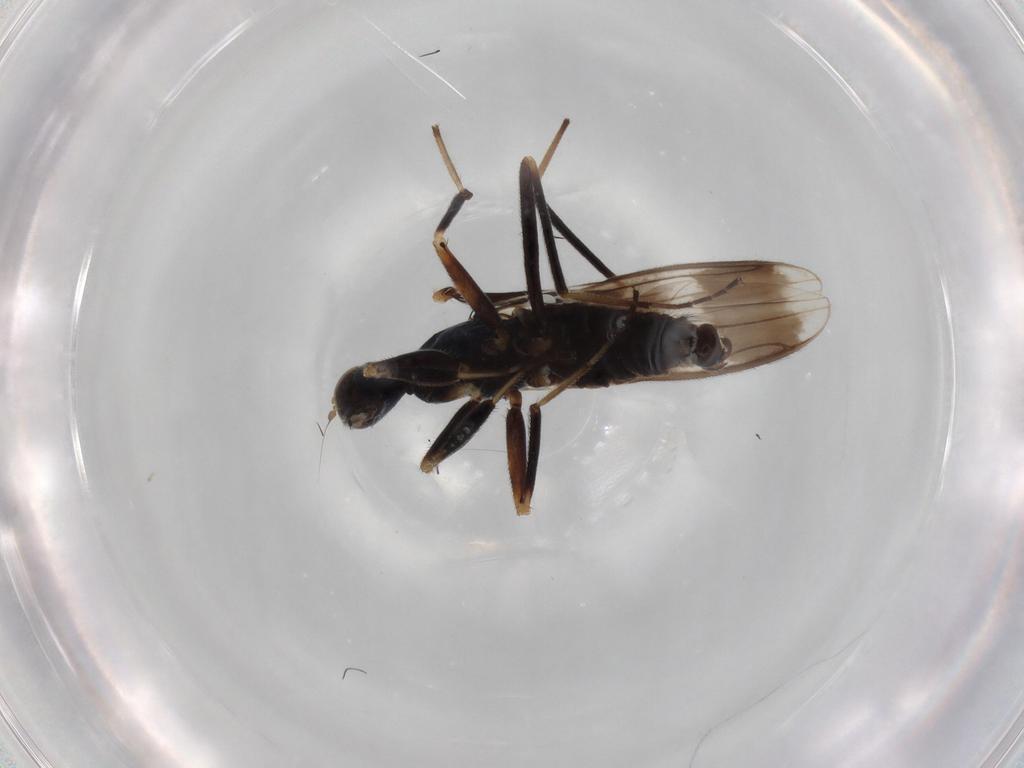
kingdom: Animalia
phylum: Arthropoda
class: Insecta
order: Diptera
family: Hybotidae
